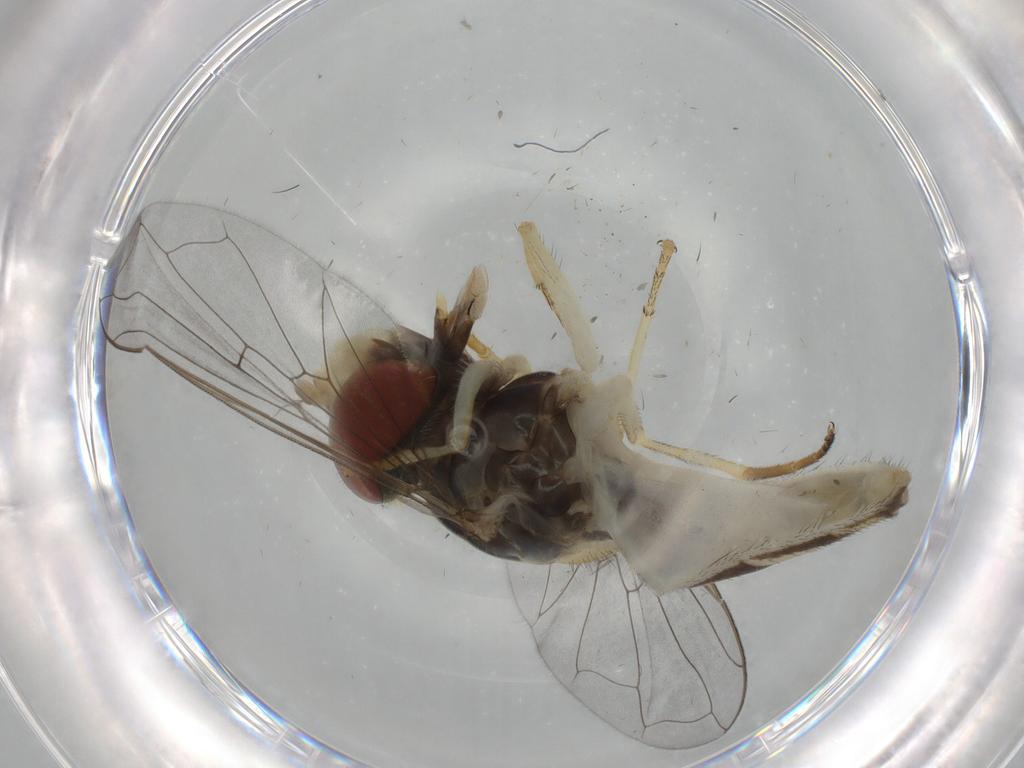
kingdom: Animalia
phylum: Arthropoda
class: Insecta
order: Diptera
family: Syrphidae
